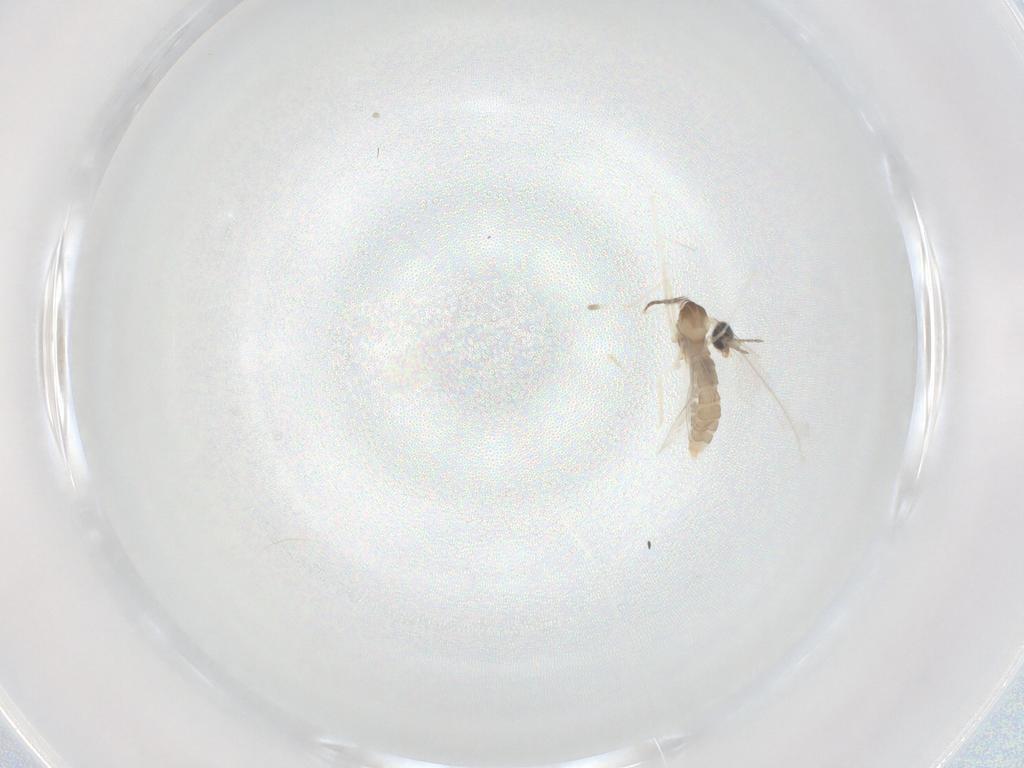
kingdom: Animalia
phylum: Arthropoda
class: Insecta
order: Diptera
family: Cecidomyiidae
